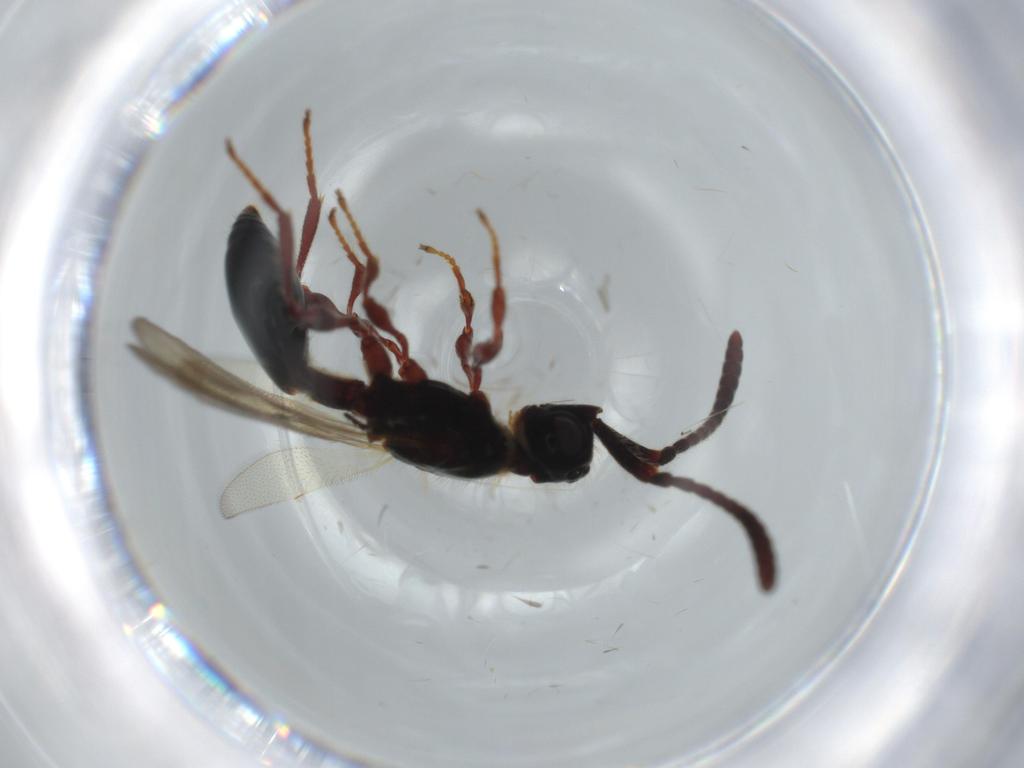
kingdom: Animalia
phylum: Arthropoda
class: Insecta
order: Hymenoptera
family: Diapriidae
